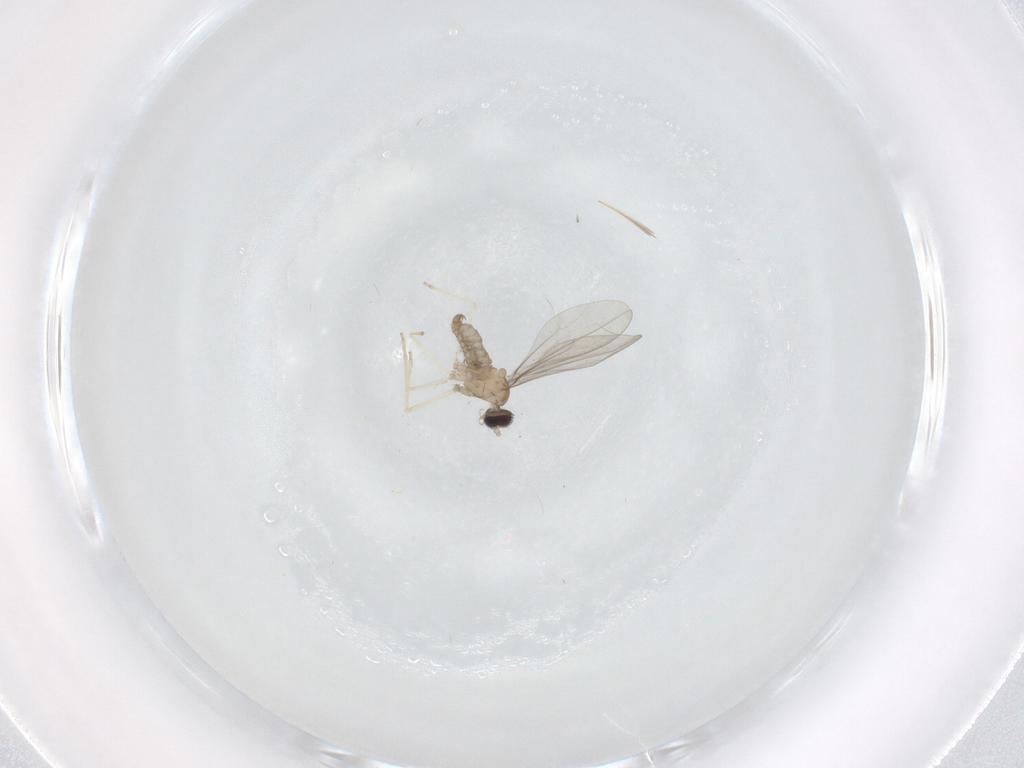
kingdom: Animalia
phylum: Arthropoda
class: Insecta
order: Diptera
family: Cecidomyiidae
